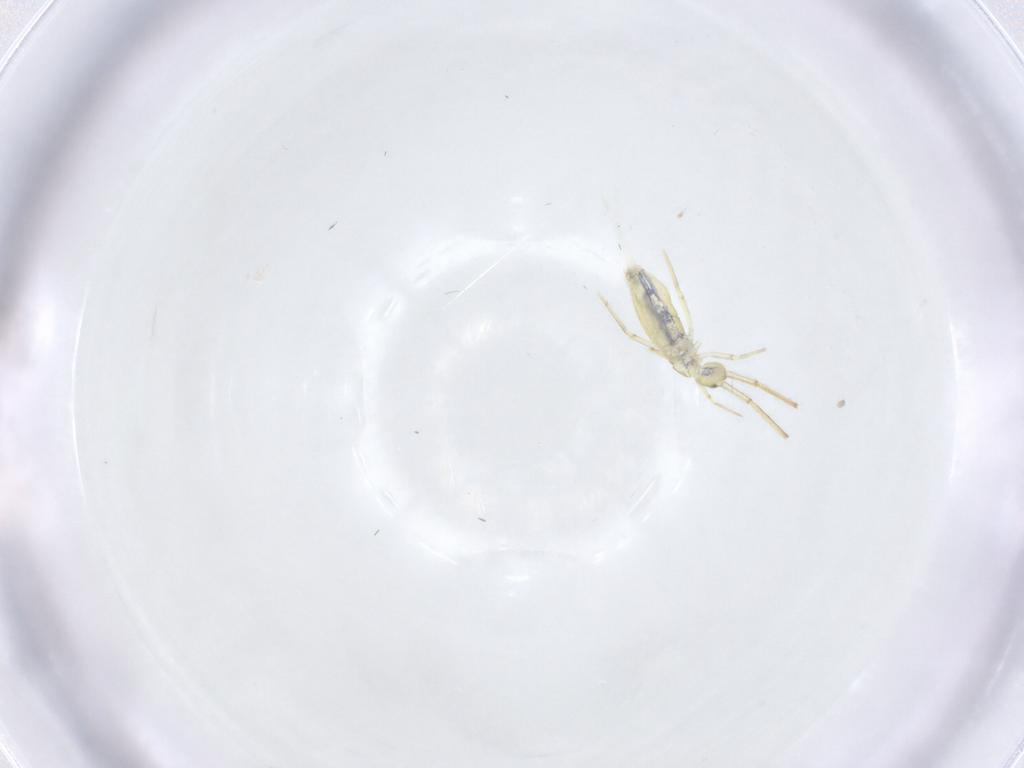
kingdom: Animalia
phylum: Arthropoda
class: Collembola
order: Entomobryomorpha
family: Paronellidae
